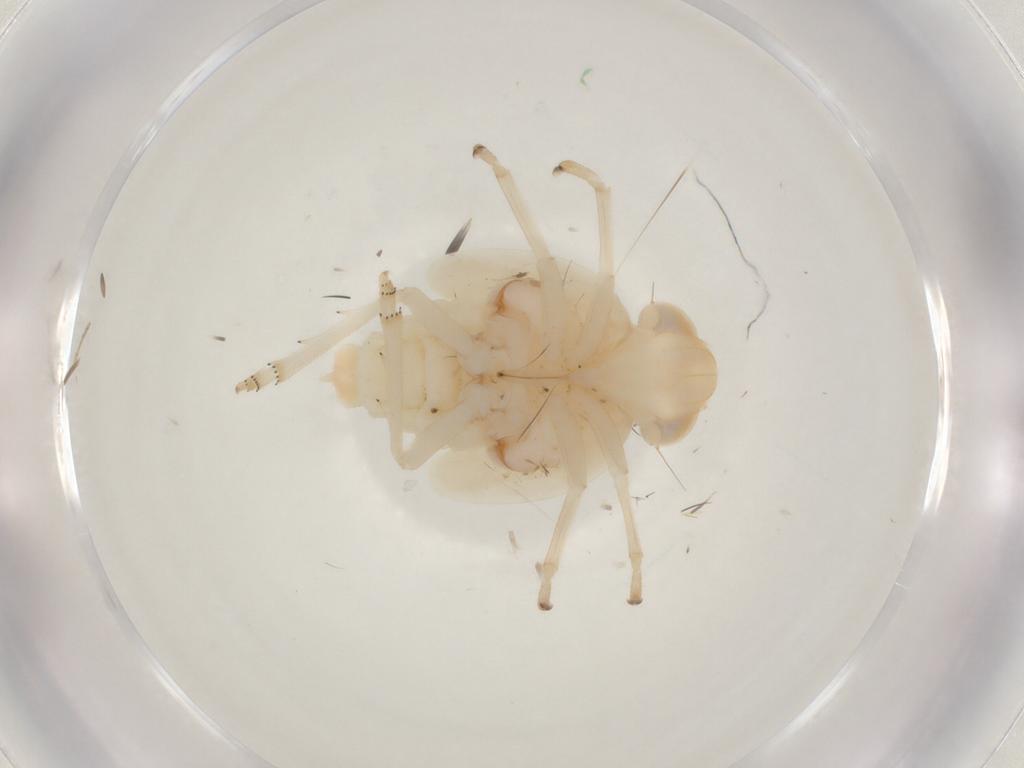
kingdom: Animalia
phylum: Arthropoda
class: Insecta
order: Hemiptera
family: Nogodinidae
